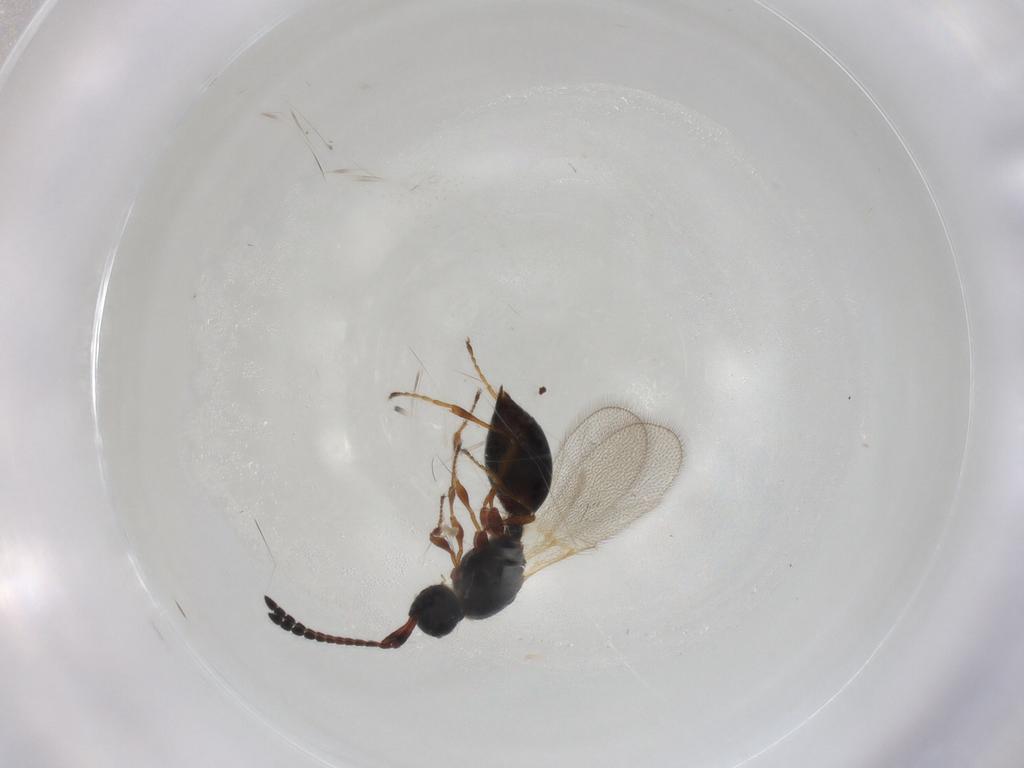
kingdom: Animalia
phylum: Arthropoda
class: Insecta
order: Hymenoptera
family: Diapriidae
